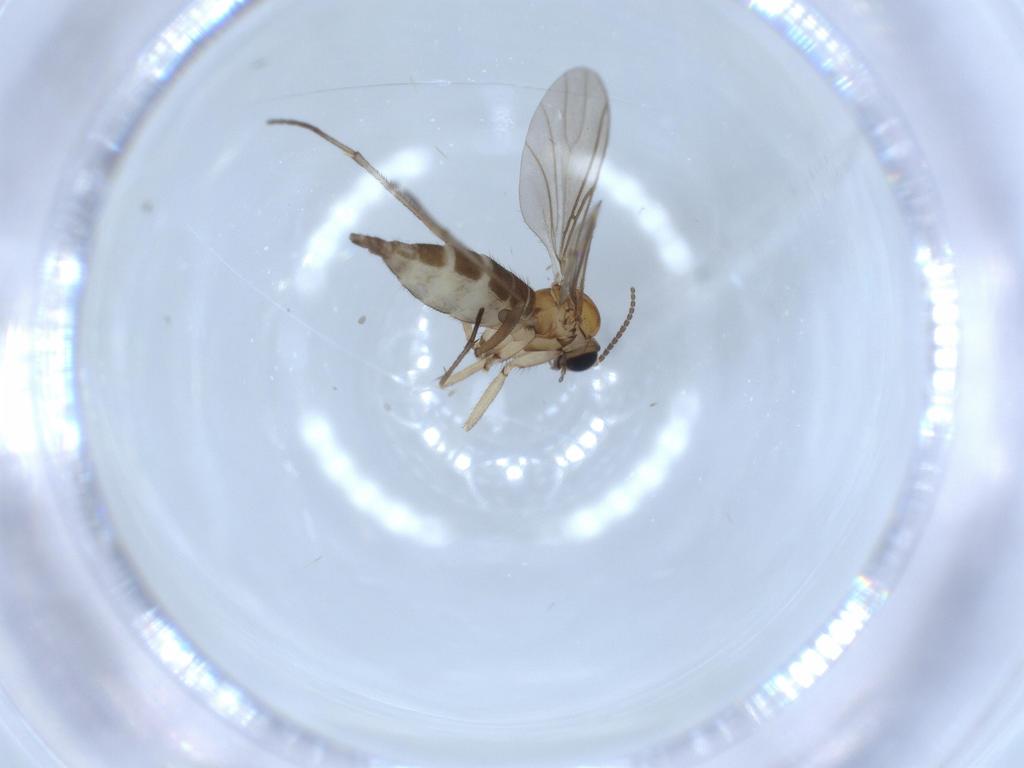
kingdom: Animalia
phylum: Arthropoda
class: Insecta
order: Diptera
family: Sciaridae
